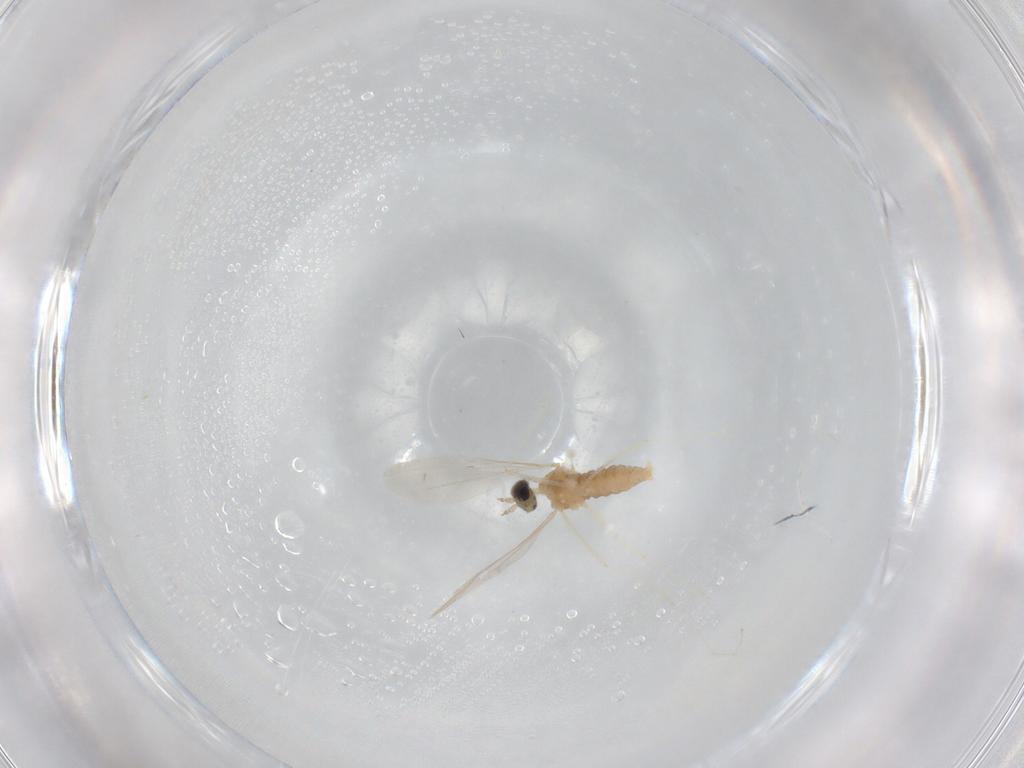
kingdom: Animalia
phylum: Arthropoda
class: Insecta
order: Diptera
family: Cecidomyiidae
